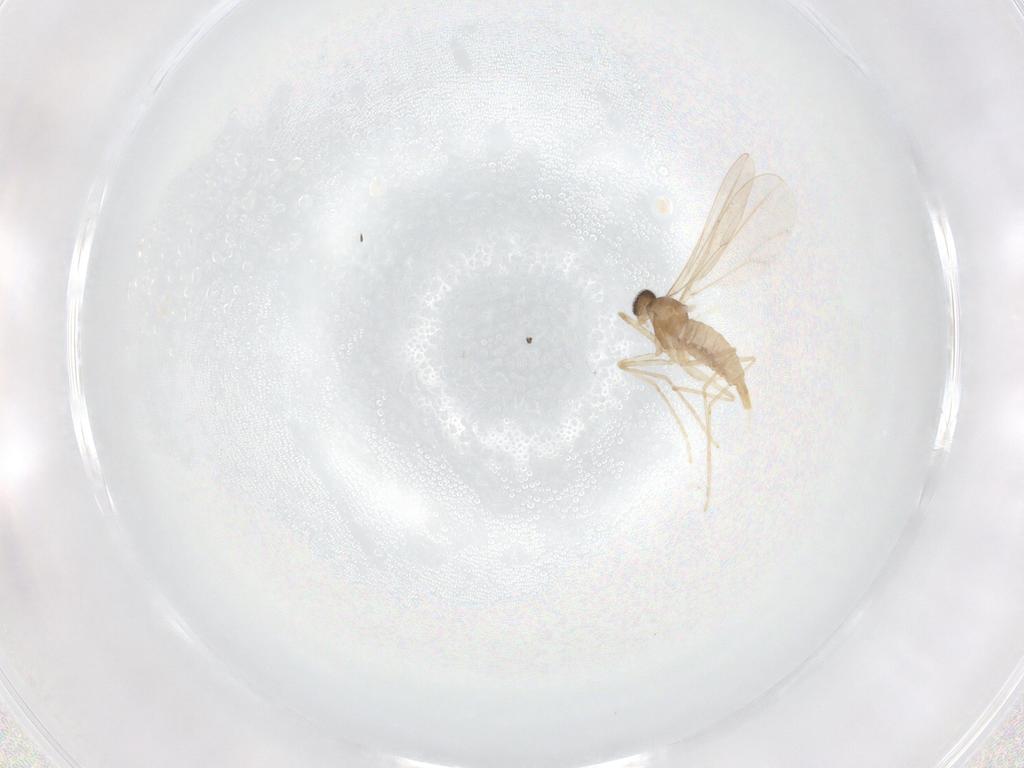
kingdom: Animalia
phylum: Arthropoda
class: Insecta
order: Diptera
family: Cecidomyiidae
